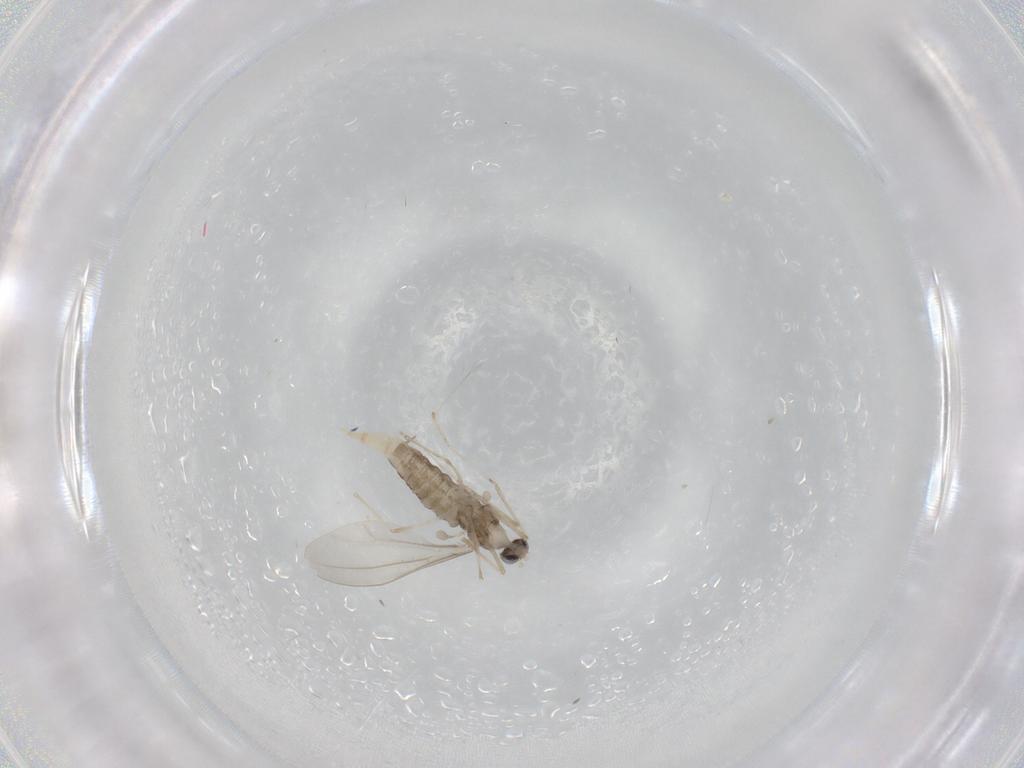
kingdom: Animalia
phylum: Arthropoda
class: Insecta
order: Diptera
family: Cecidomyiidae
